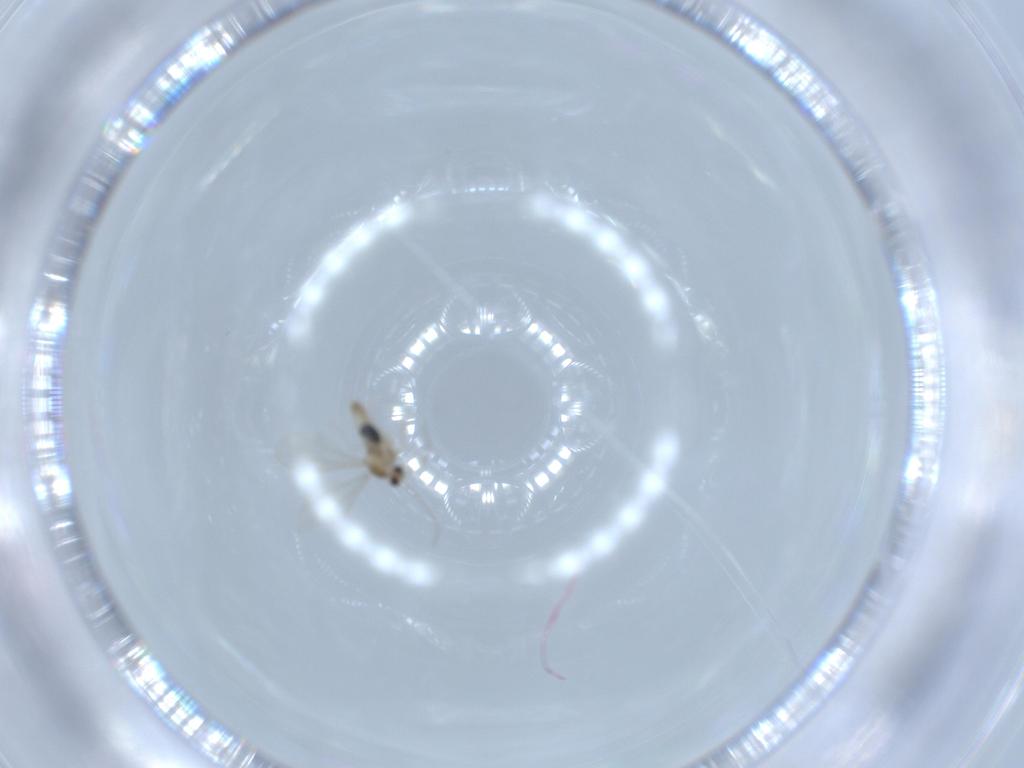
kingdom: Animalia
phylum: Arthropoda
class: Insecta
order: Diptera
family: Cecidomyiidae
